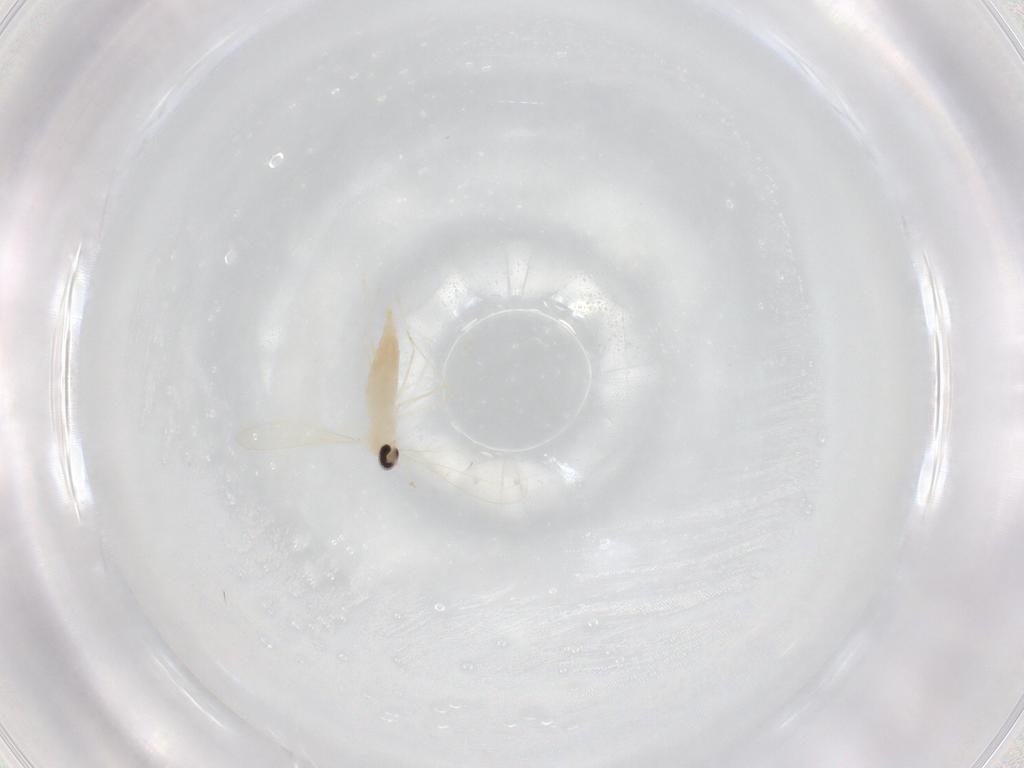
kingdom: Animalia
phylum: Arthropoda
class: Insecta
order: Diptera
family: Cecidomyiidae
